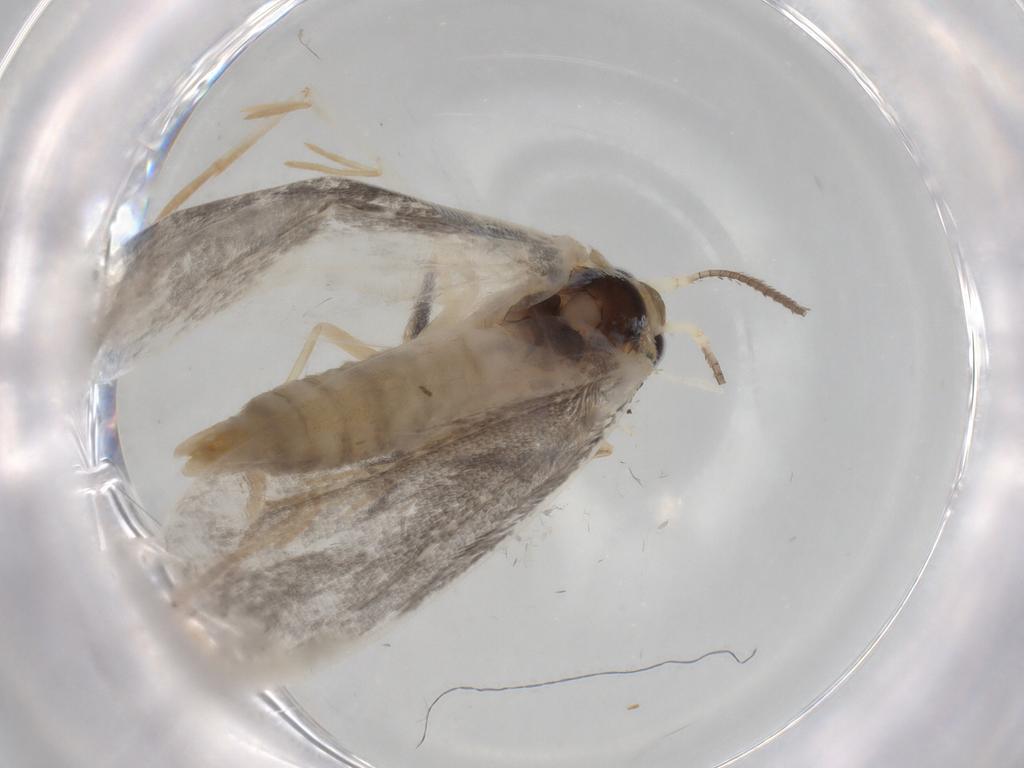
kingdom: Animalia
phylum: Arthropoda
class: Insecta
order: Lepidoptera
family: Yponomeutidae
